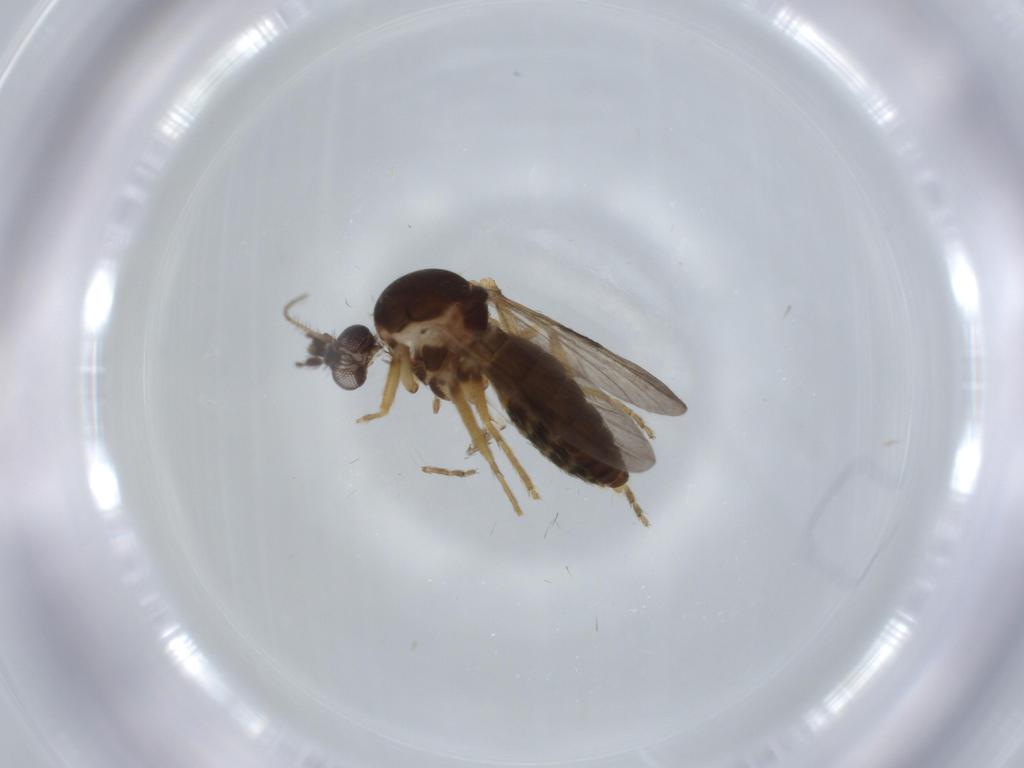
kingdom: Animalia
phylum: Arthropoda
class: Insecta
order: Diptera
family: Ceratopogonidae
